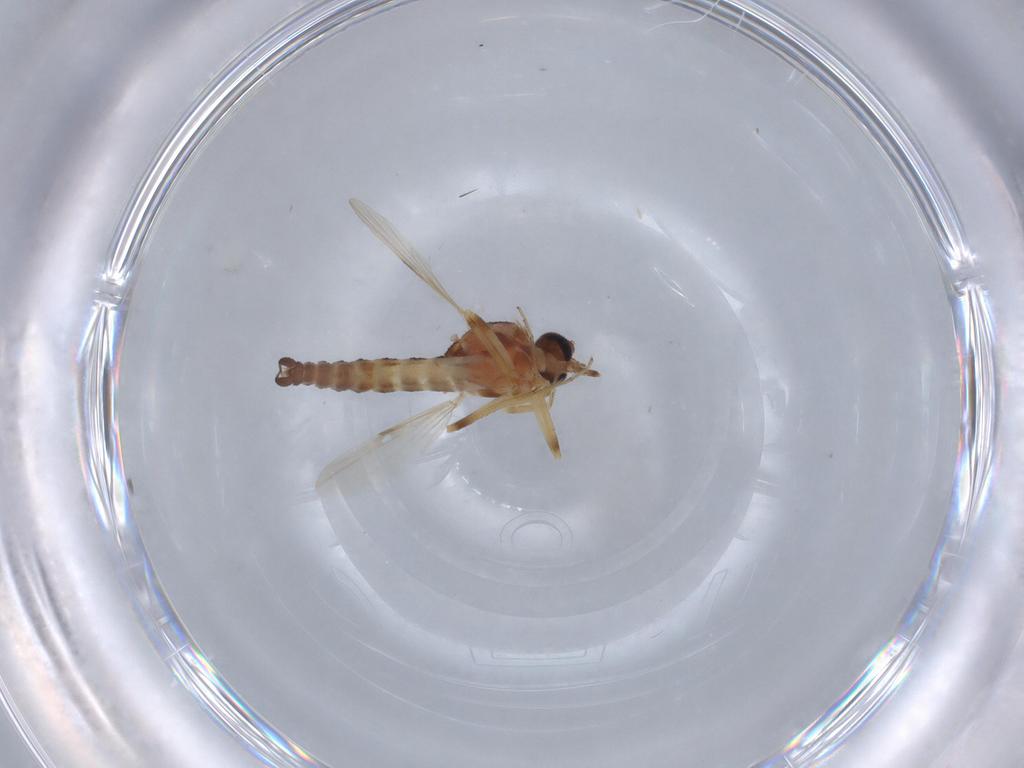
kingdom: Animalia
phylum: Arthropoda
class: Insecta
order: Diptera
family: Ceratopogonidae
